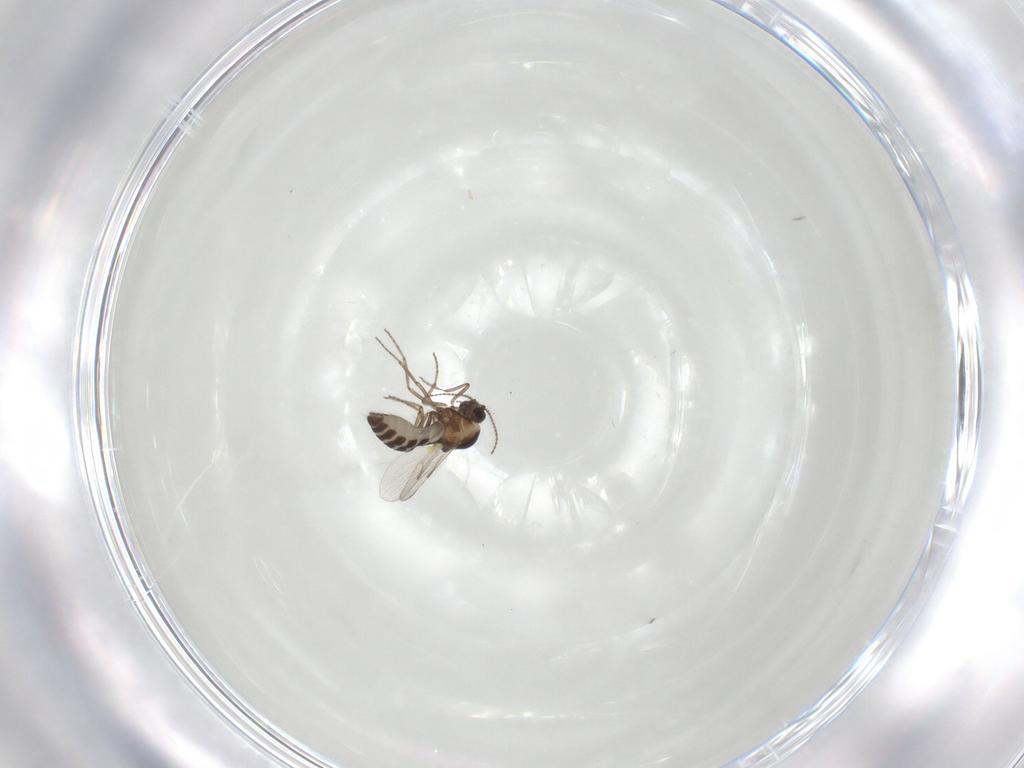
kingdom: Animalia
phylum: Arthropoda
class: Insecta
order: Diptera
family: Ceratopogonidae
